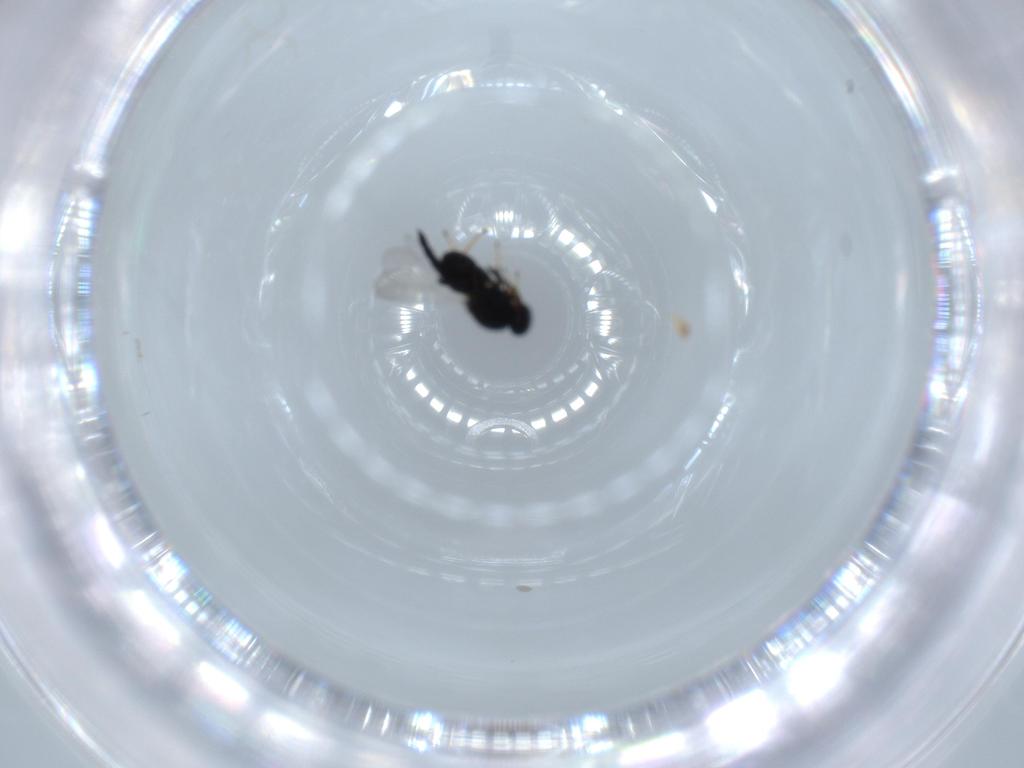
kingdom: Animalia
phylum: Arthropoda
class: Insecta
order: Hymenoptera
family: Platygastridae
